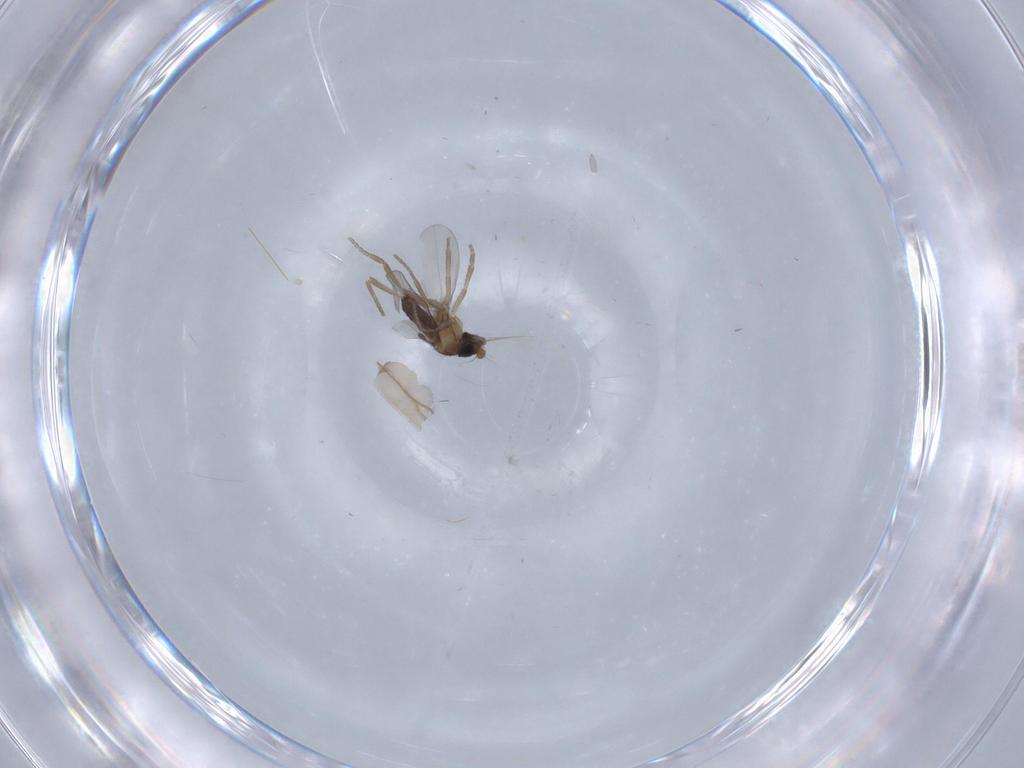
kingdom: Animalia
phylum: Arthropoda
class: Insecta
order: Diptera
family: Phoridae
